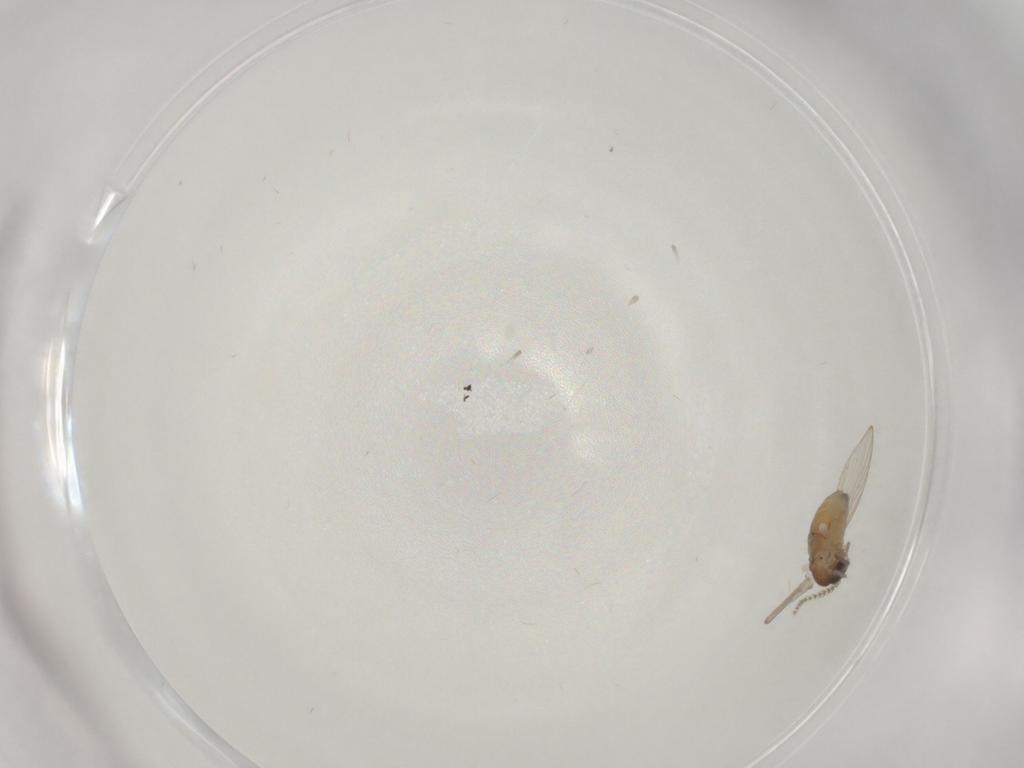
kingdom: Animalia
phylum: Arthropoda
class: Insecta
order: Diptera
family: Psychodidae
